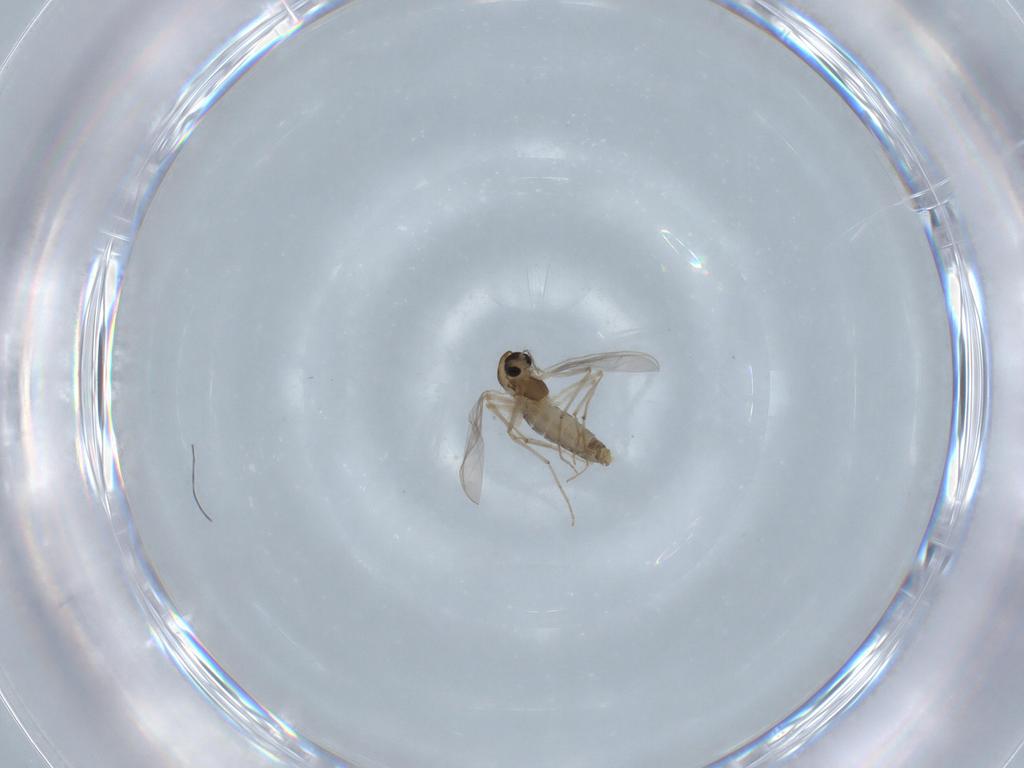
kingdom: Animalia
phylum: Arthropoda
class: Insecta
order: Diptera
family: Chironomidae
